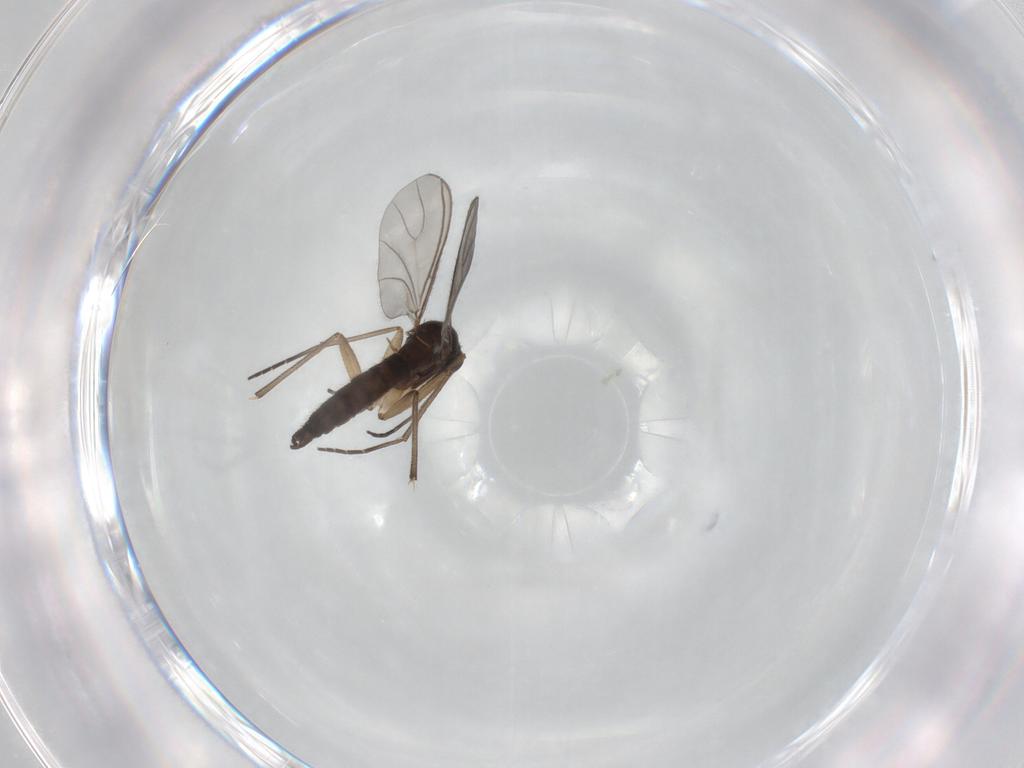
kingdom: Animalia
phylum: Arthropoda
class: Insecta
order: Diptera
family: Sciaridae
